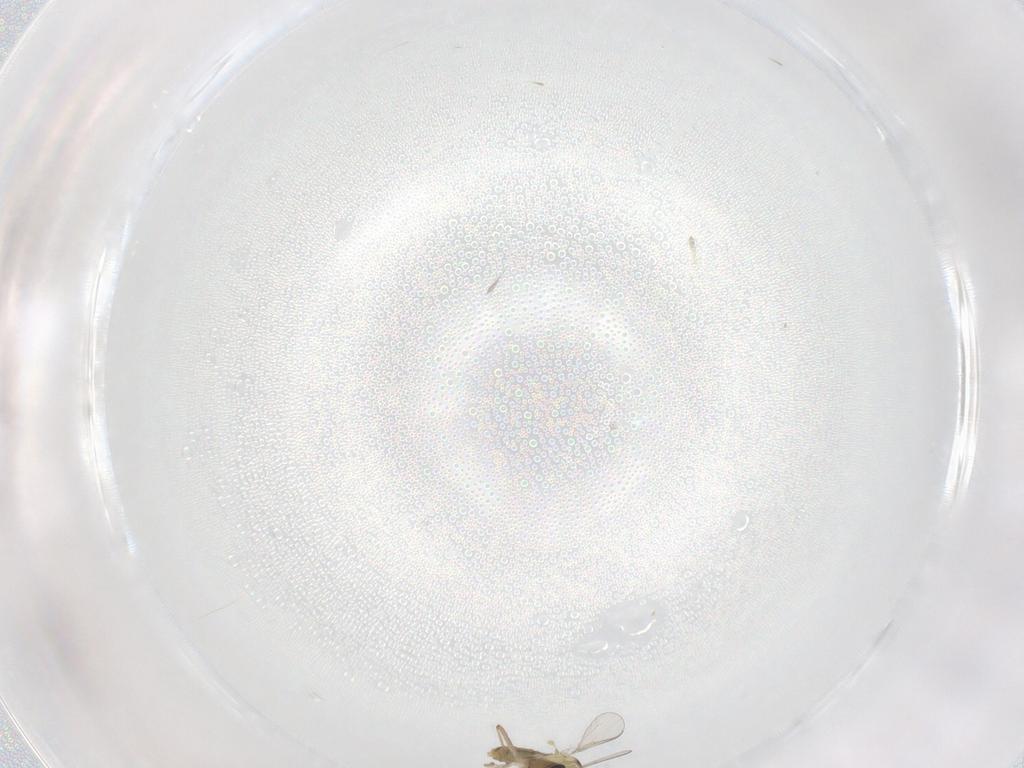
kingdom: Animalia
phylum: Arthropoda
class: Insecta
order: Diptera
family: Chironomidae
